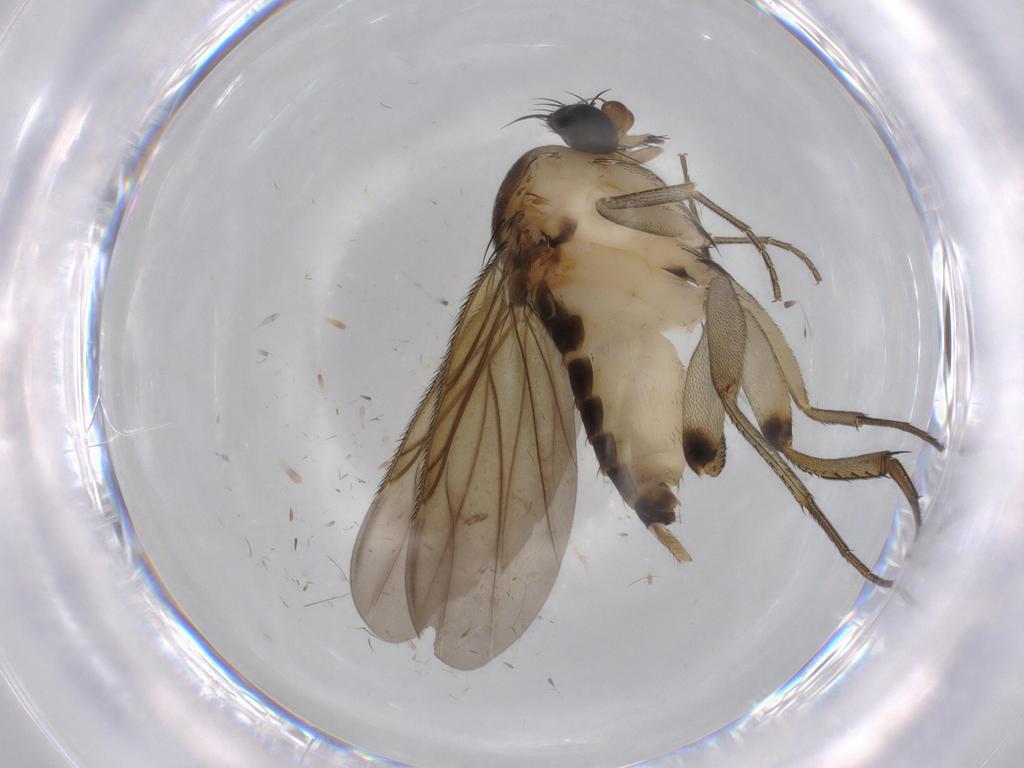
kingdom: Animalia
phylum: Arthropoda
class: Insecta
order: Diptera
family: Phoridae
